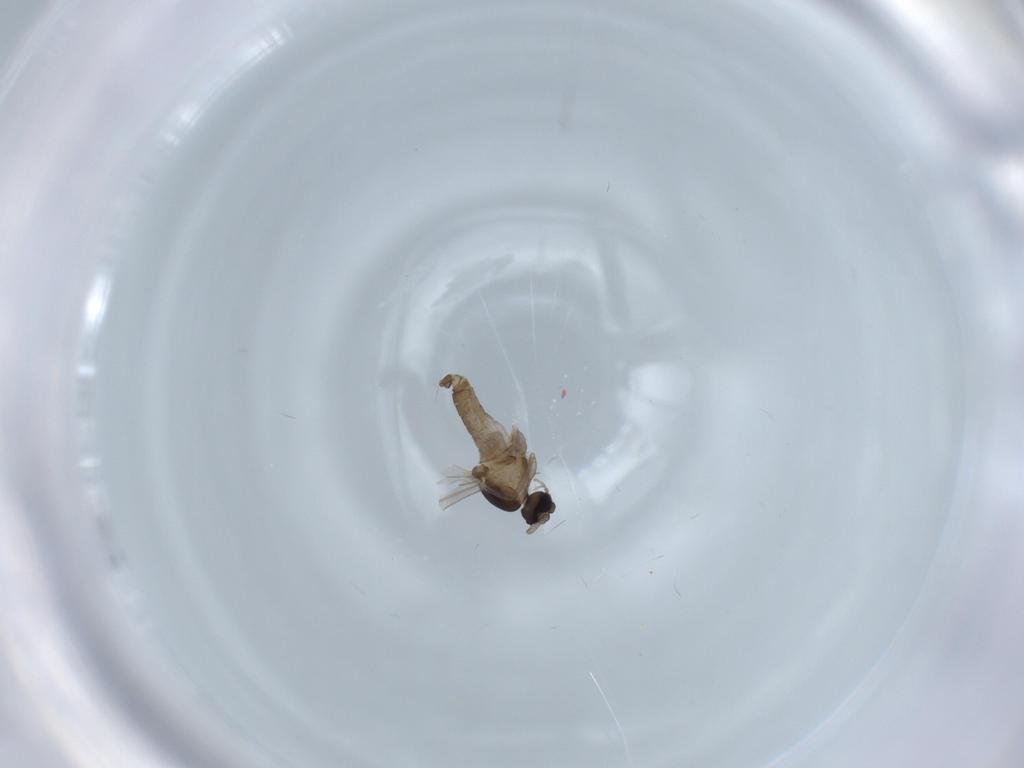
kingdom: Animalia
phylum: Arthropoda
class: Insecta
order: Diptera
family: Cecidomyiidae
